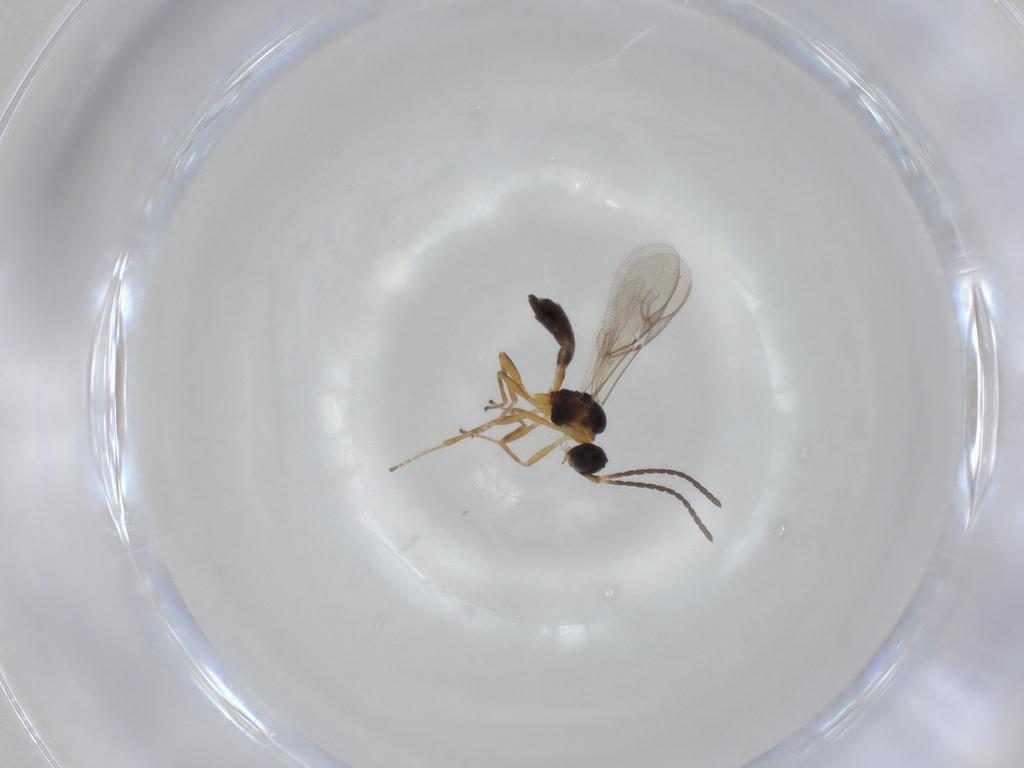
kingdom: Animalia
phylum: Arthropoda
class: Insecta
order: Hymenoptera
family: Braconidae
